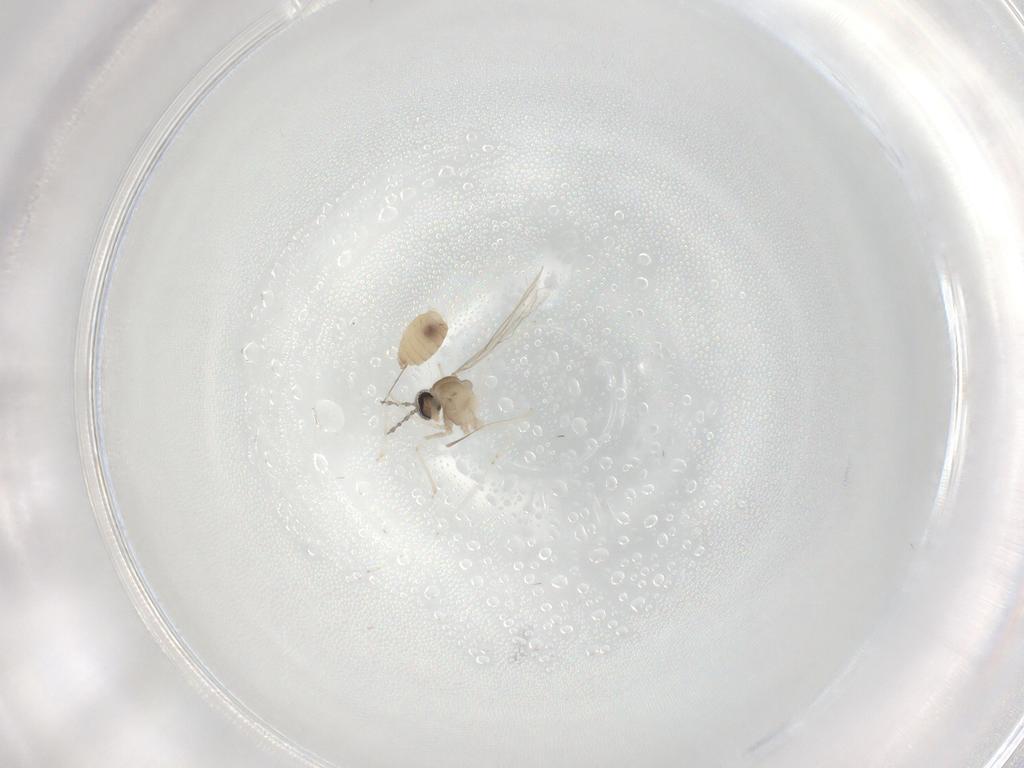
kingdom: Animalia
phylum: Arthropoda
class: Insecta
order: Diptera
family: Cecidomyiidae
